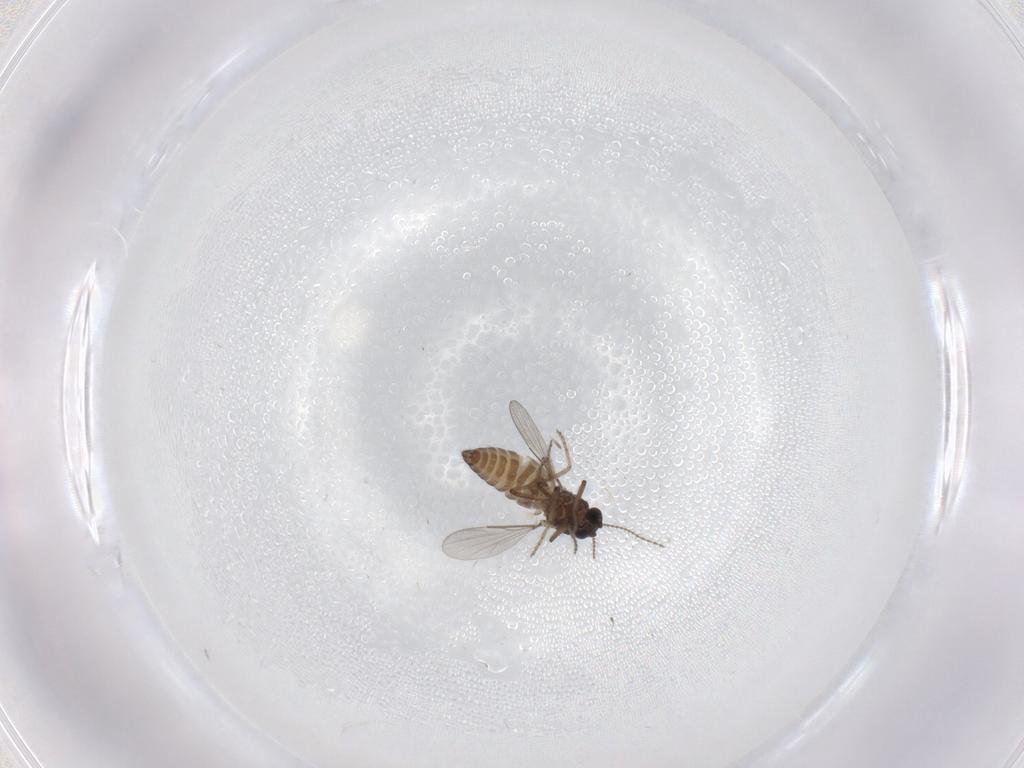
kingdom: Animalia
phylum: Arthropoda
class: Insecta
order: Diptera
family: Ceratopogonidae
